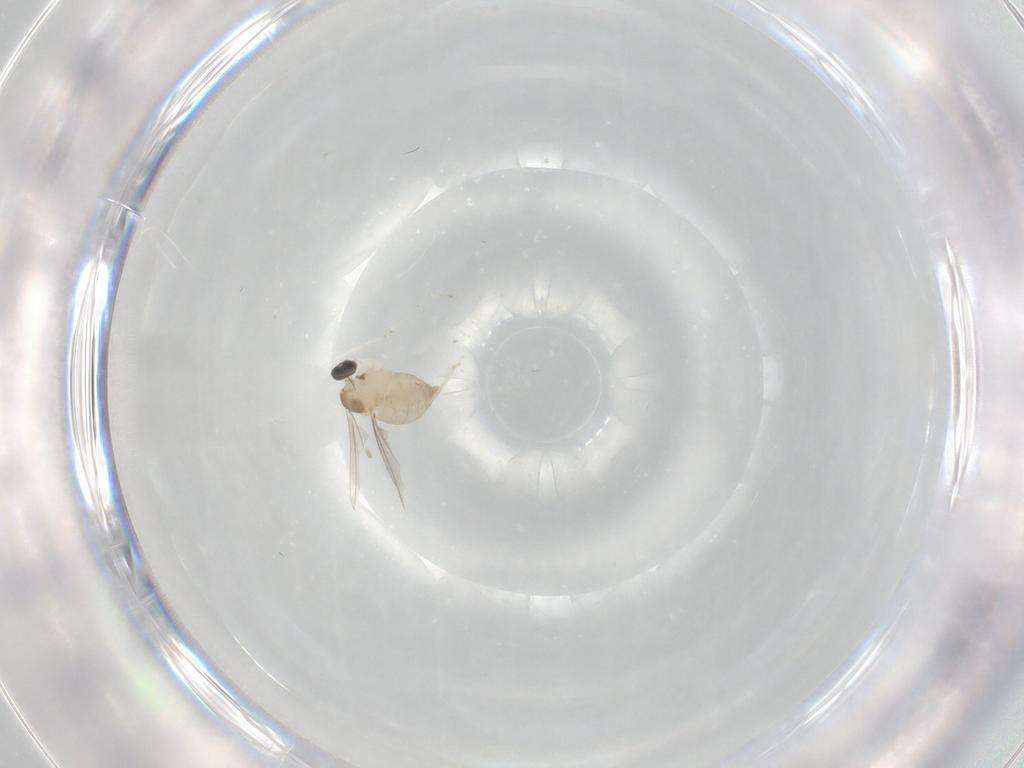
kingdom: Animalia
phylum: Arthropoda
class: Insecta
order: Diptera
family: Cecidomyiidae
